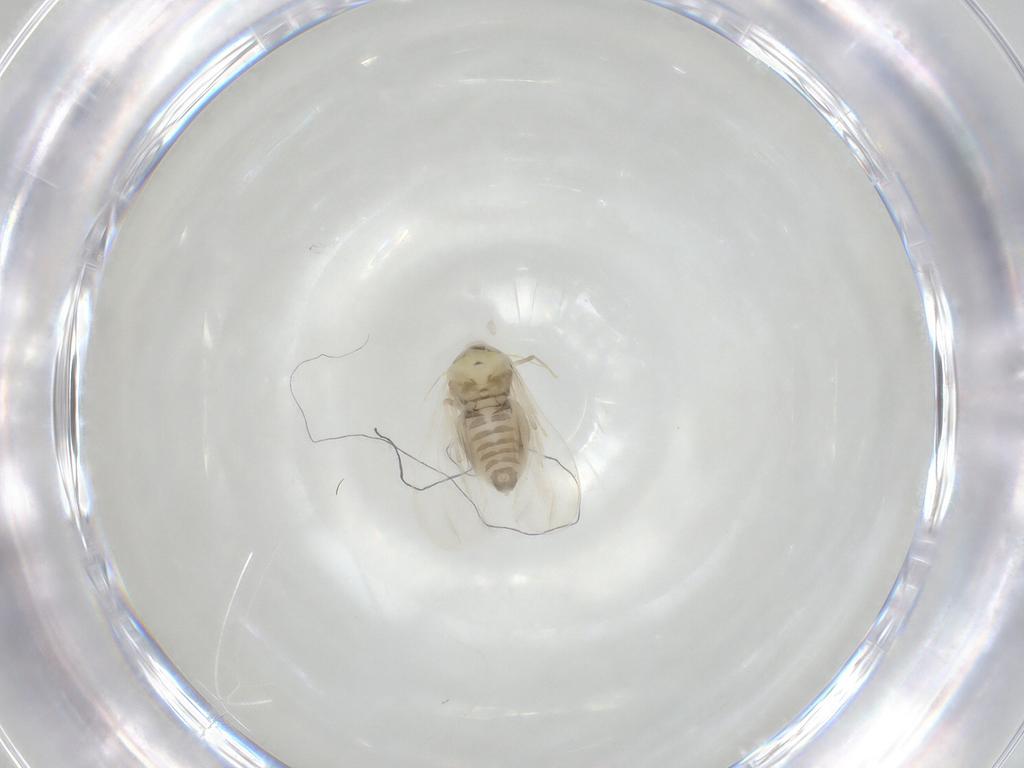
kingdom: Animalia
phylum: Arthropoda
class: Insecta
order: Hemiptera
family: Aleyrodidae
